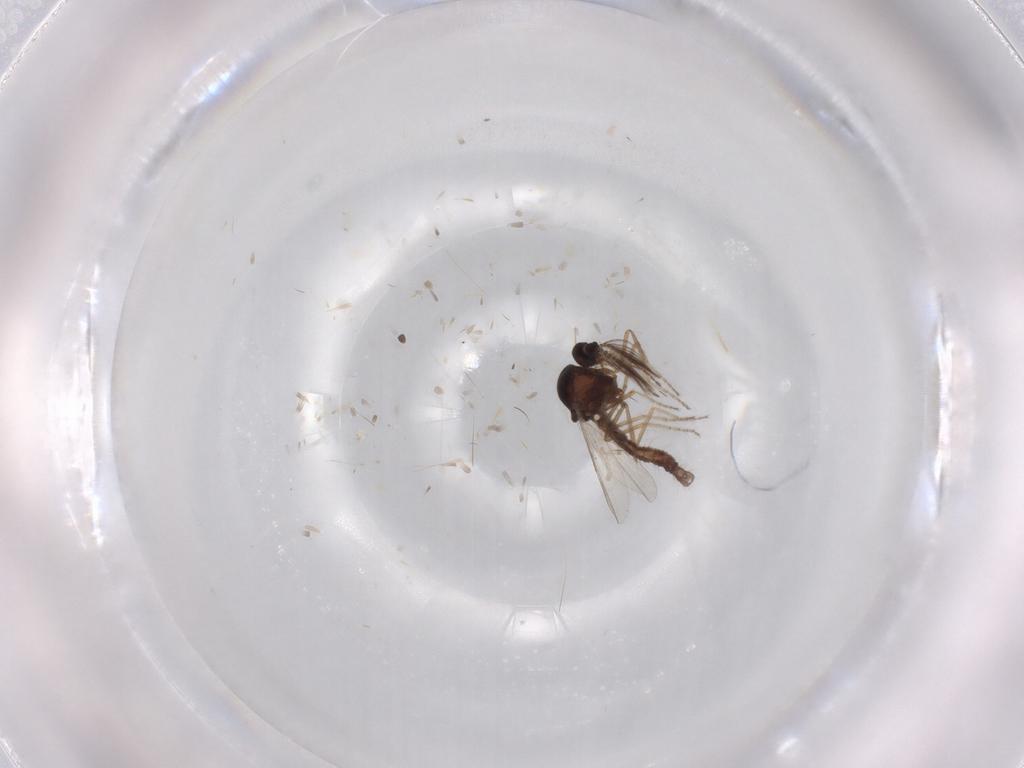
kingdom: Animalia
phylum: Arthropoda
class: Insecta
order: Diptera
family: Ceratopogonidae
